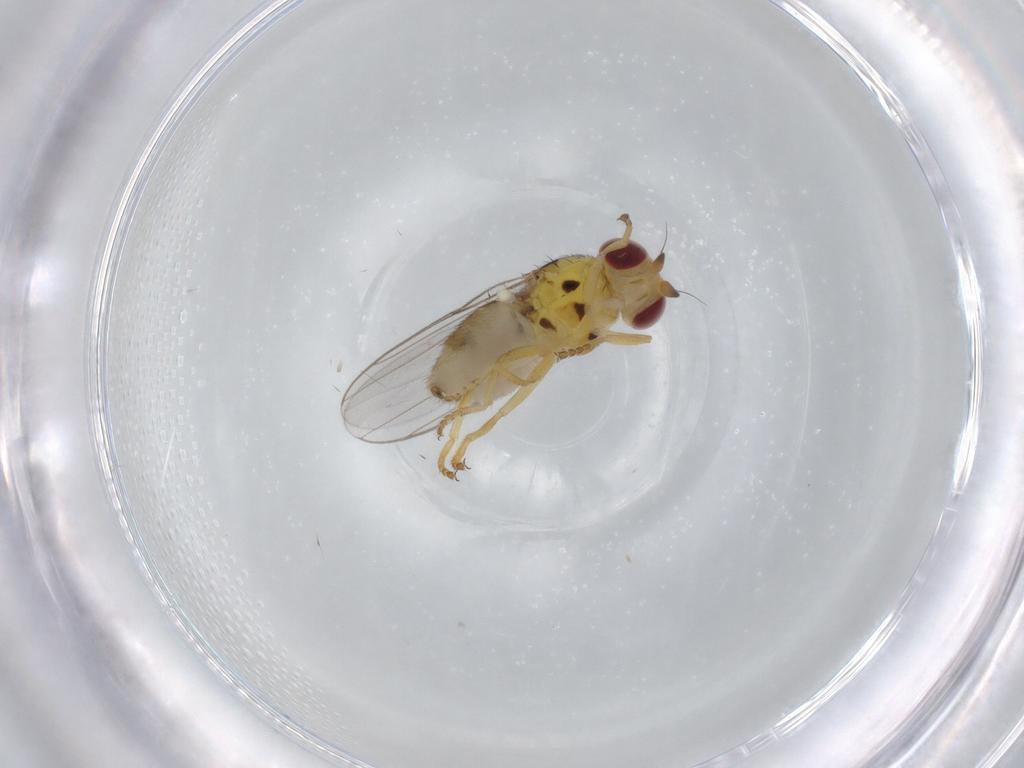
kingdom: Animalia
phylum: Arthropoda
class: Insecta
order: Diptera
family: Chloropidae
